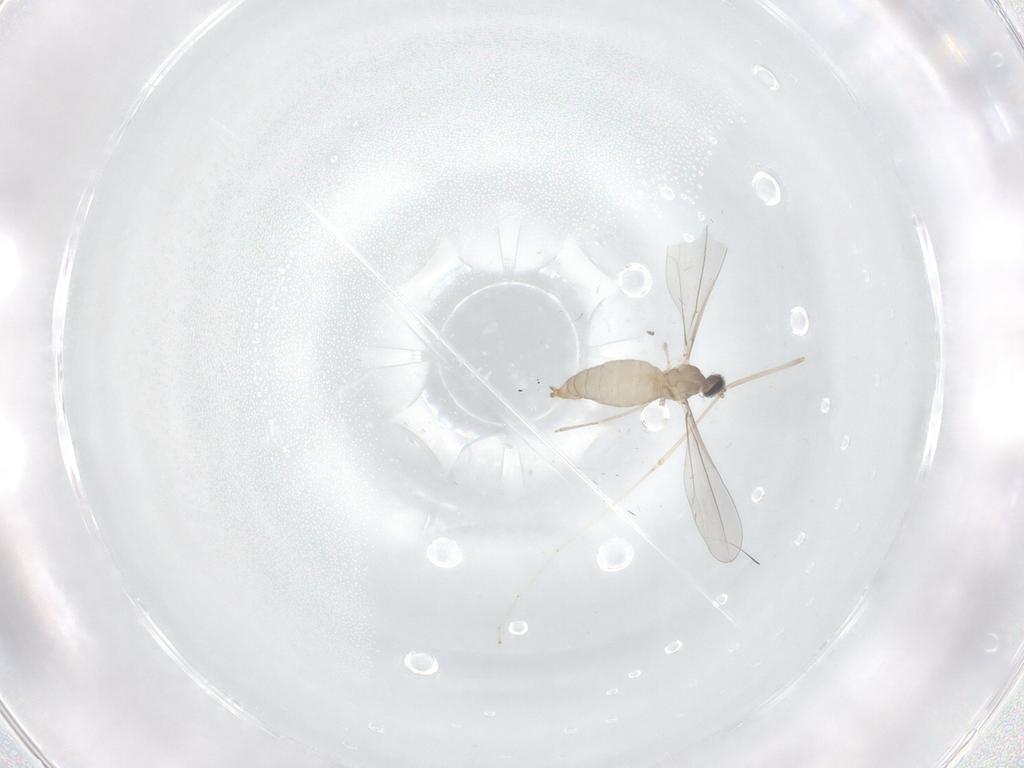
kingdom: Animalia
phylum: Arthropoda
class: Insecta
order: Diptera
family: Cecidomyiidae
